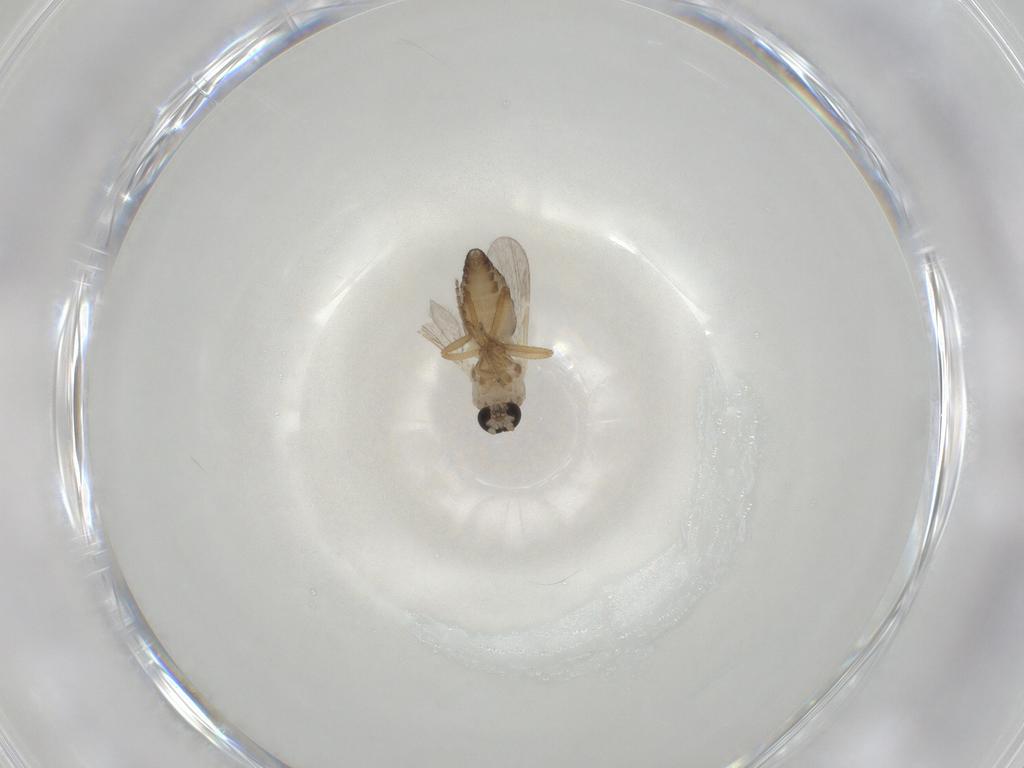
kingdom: Animalia
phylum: Arthropoda
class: Insecta
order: Diptera
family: Ceratopogonidae
